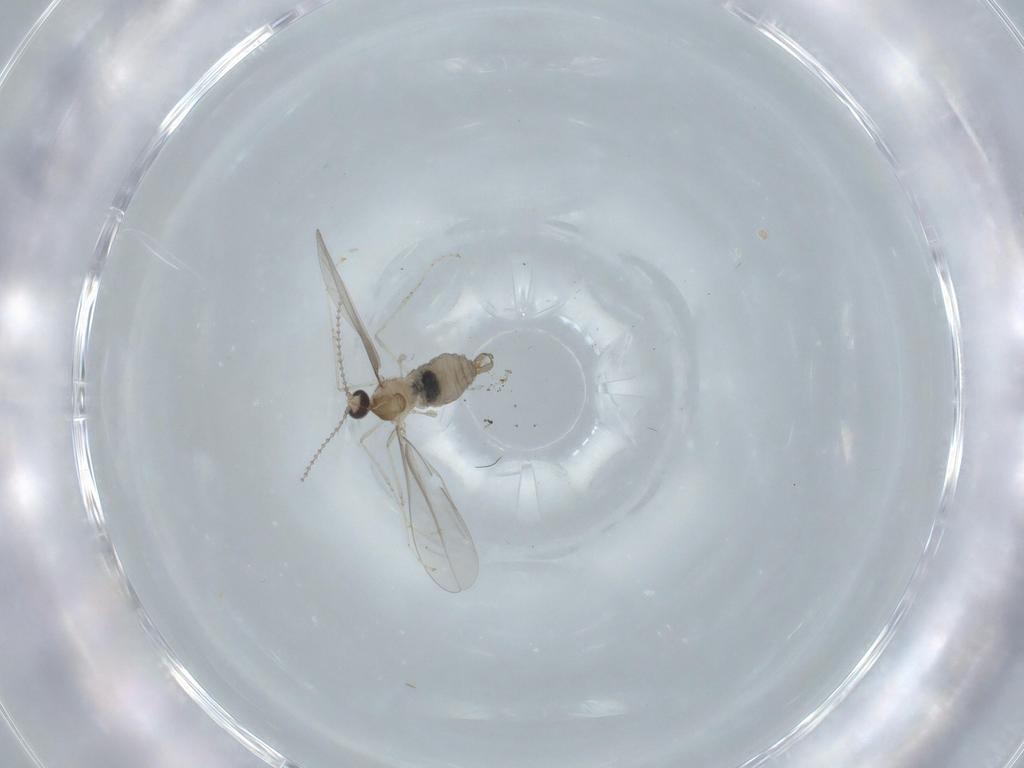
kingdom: Animalia
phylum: Arthropoda
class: Insecta
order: Diptera
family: Cecidomyiidae
